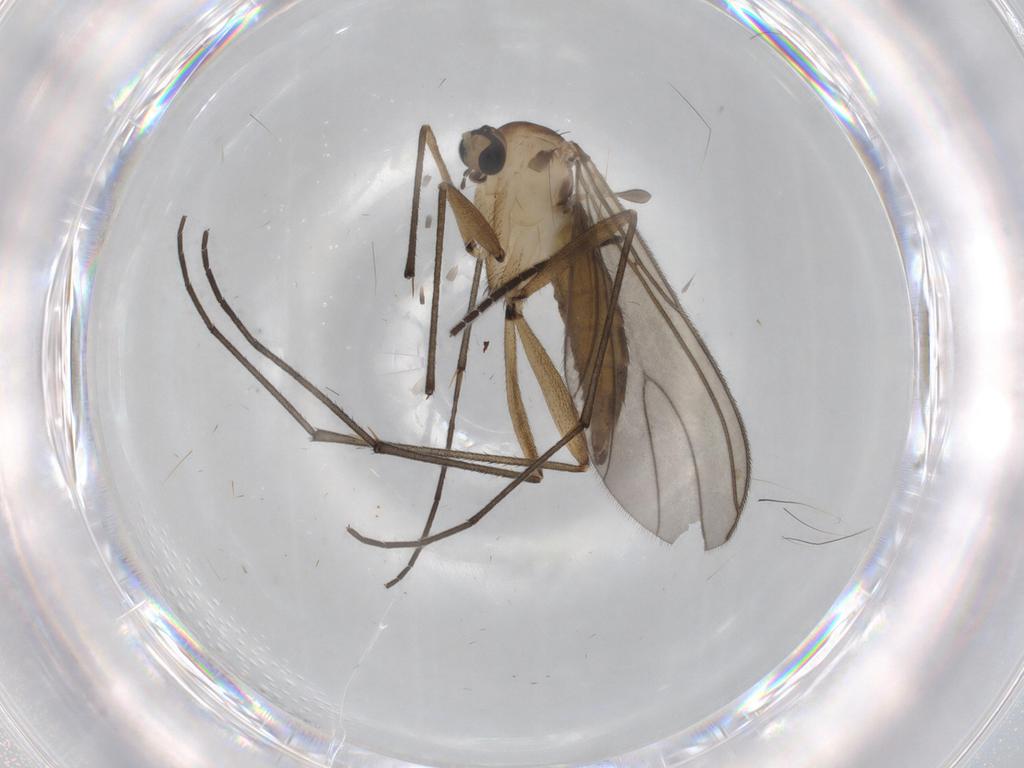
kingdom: Animalia
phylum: Arthropoda
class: Insecta
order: Diptera
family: Sciaridae
